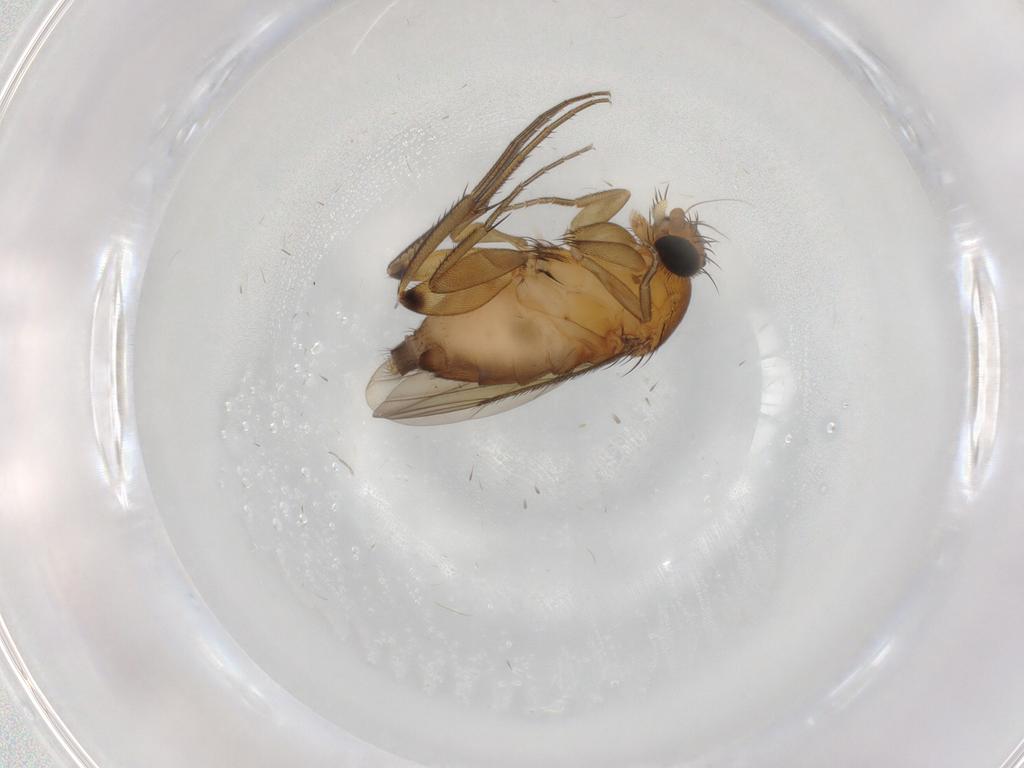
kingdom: Animalia
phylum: Arthropoda
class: Insecta
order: Diptera
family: Phoridae
